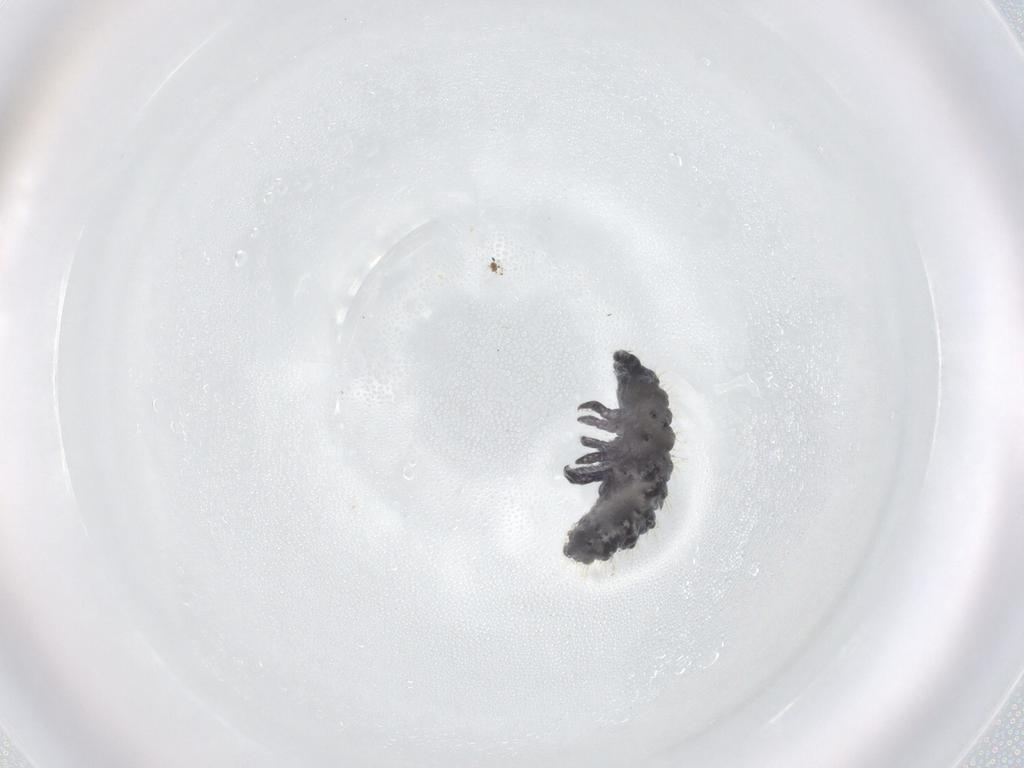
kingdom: Animalia
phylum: Arthropoda
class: Collembola
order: Poduromorpha
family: Neanuridae
